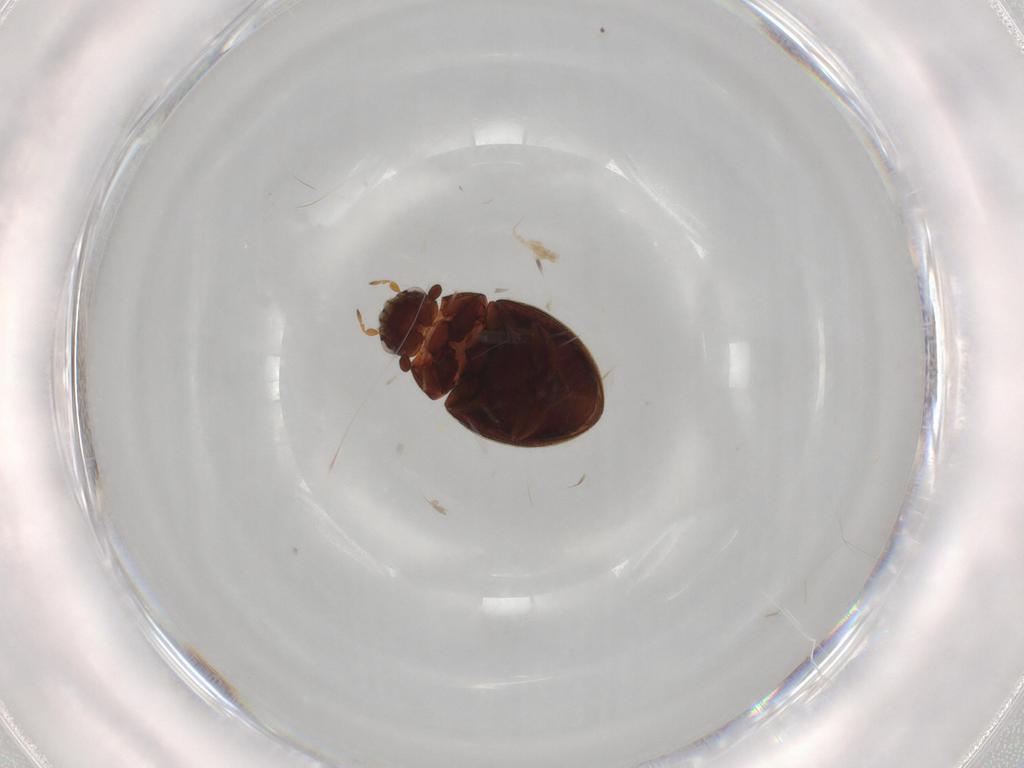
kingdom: Animalia
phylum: Arthropoda
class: Insecta
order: Coleoptera
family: Hydrophilidae
